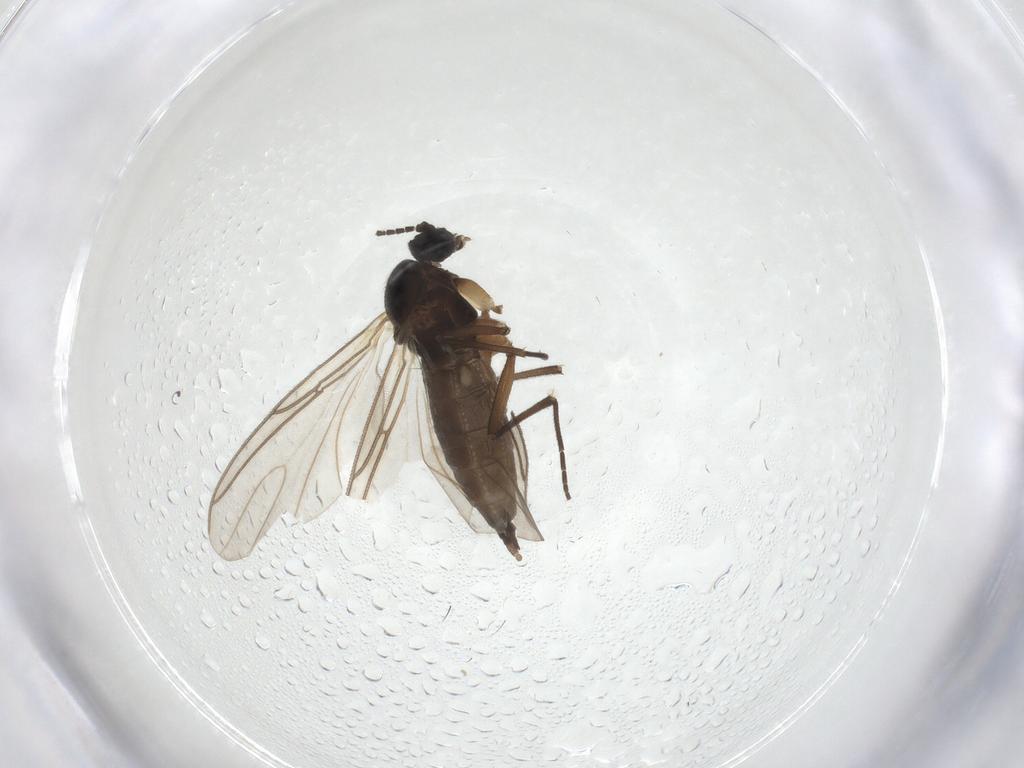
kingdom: Animalia
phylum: Arthropoda
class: Insecta
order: Diptera
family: Sciaridae
